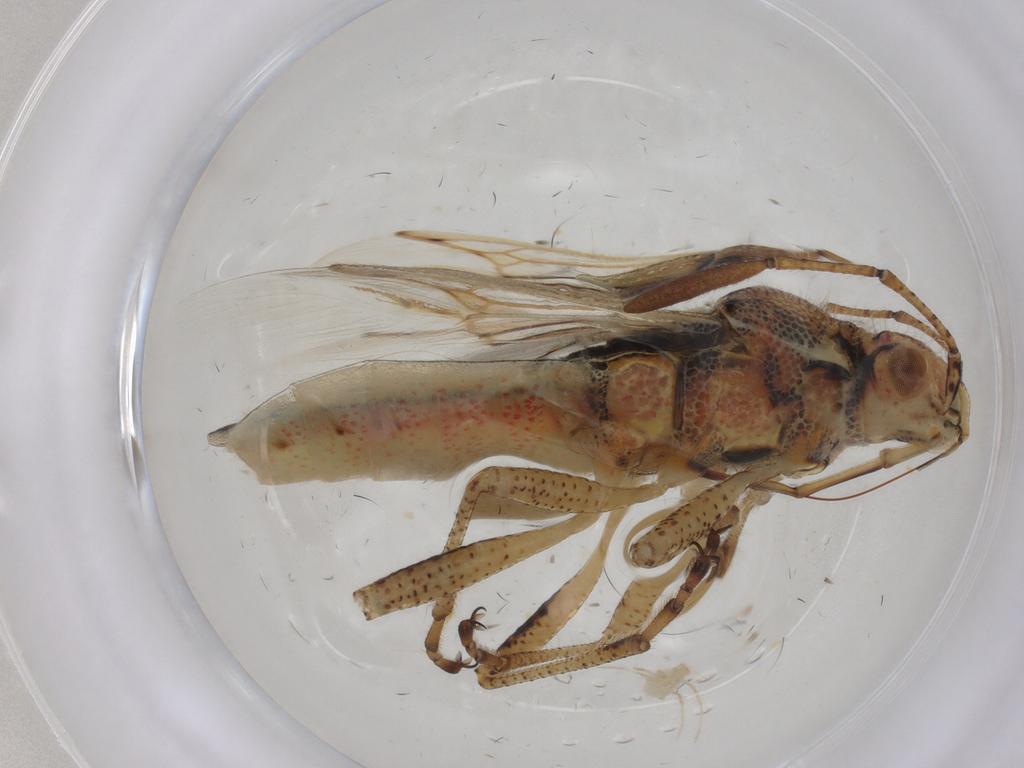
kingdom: Animalia
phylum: Arthropoda
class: Insecta
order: Hemiptera
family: Rhopalidae
